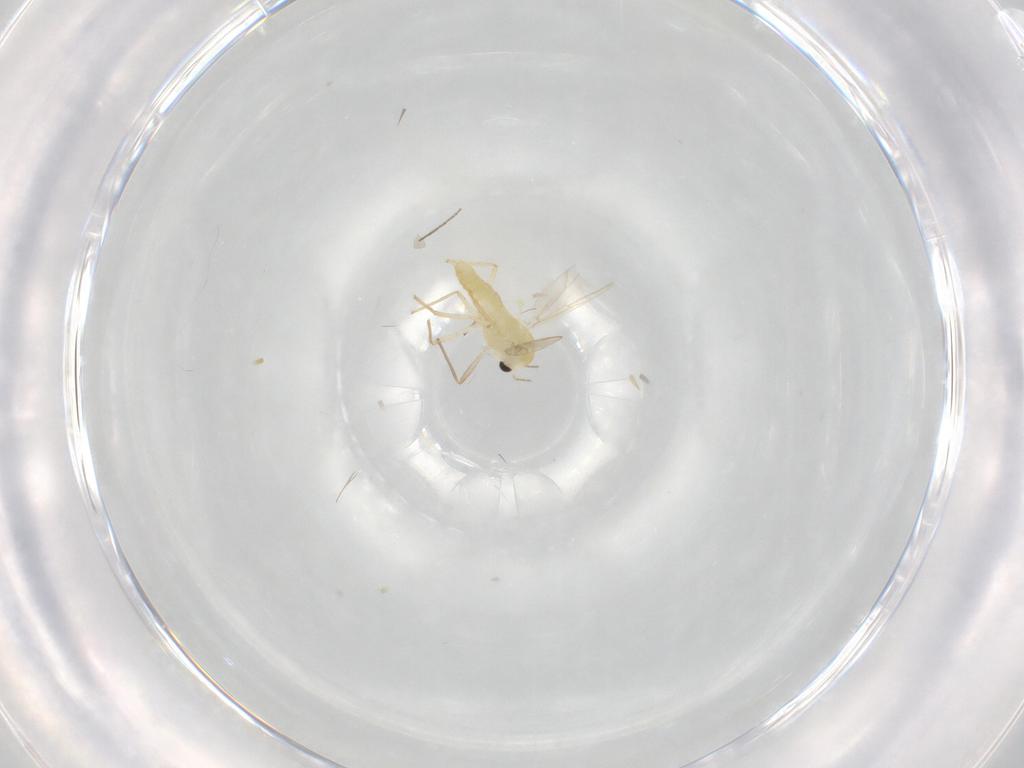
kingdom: Animalia
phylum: Arthropoda
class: Insecta
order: Diptera
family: Chironomidae
